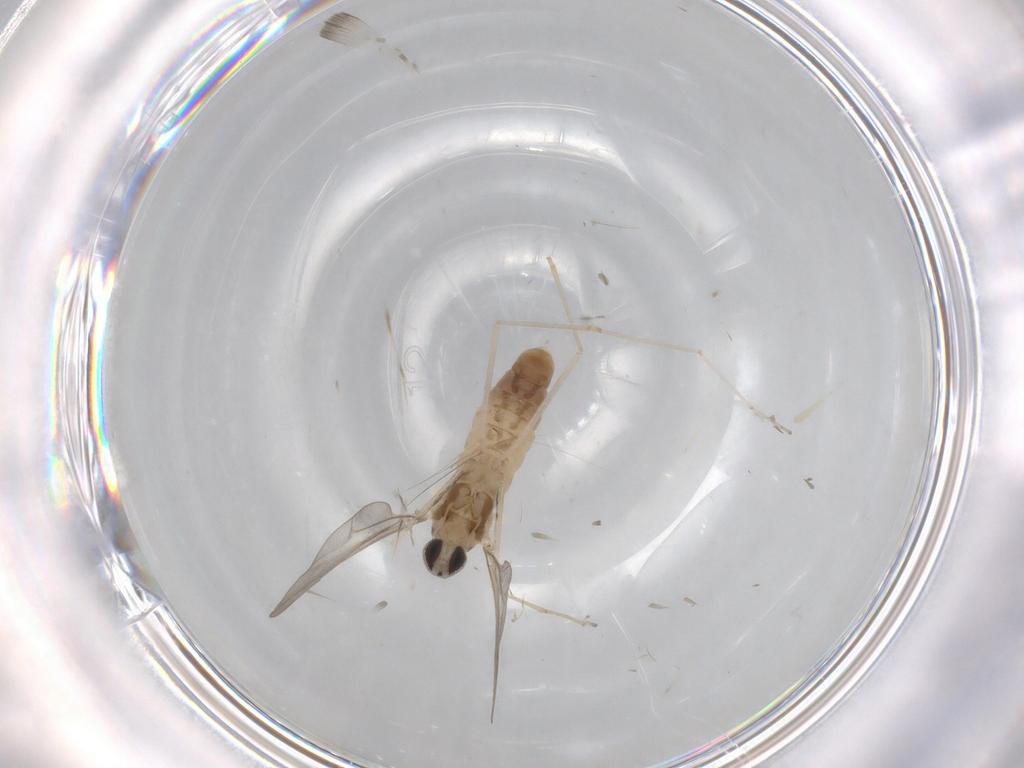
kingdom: Animalia
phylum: Arthropoda
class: Insecta
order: Diptera
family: Cecidomyiidae
